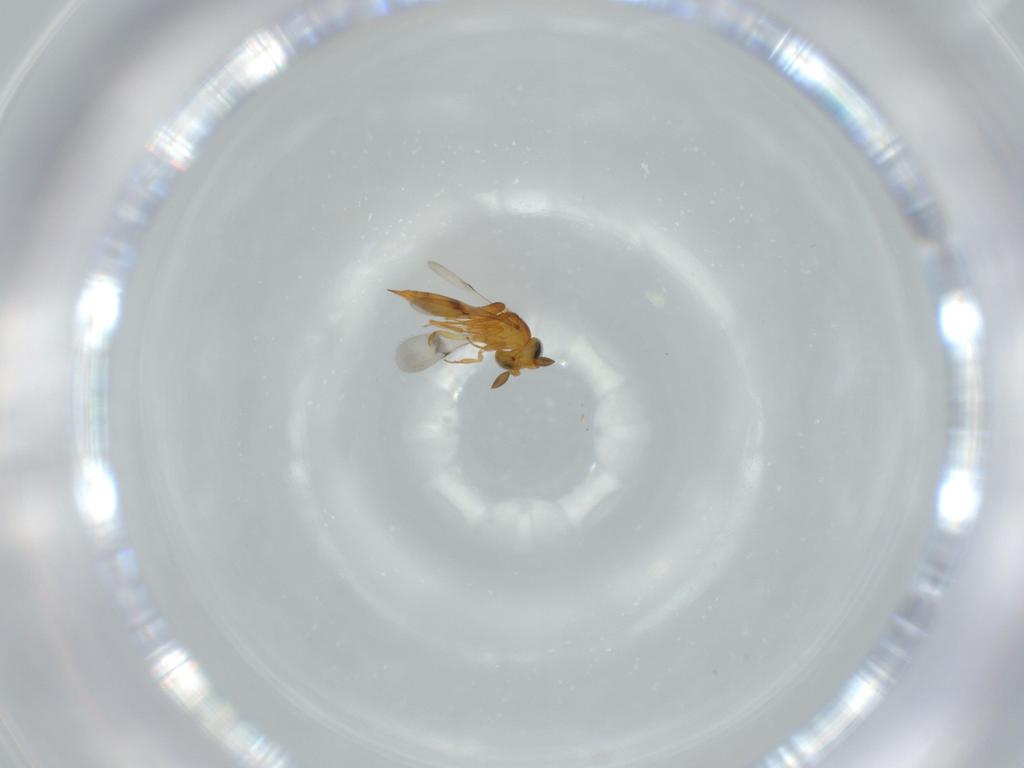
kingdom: Animalia
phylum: Arthropoda
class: Insecta
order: Hymenoptera
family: Scelionidae
